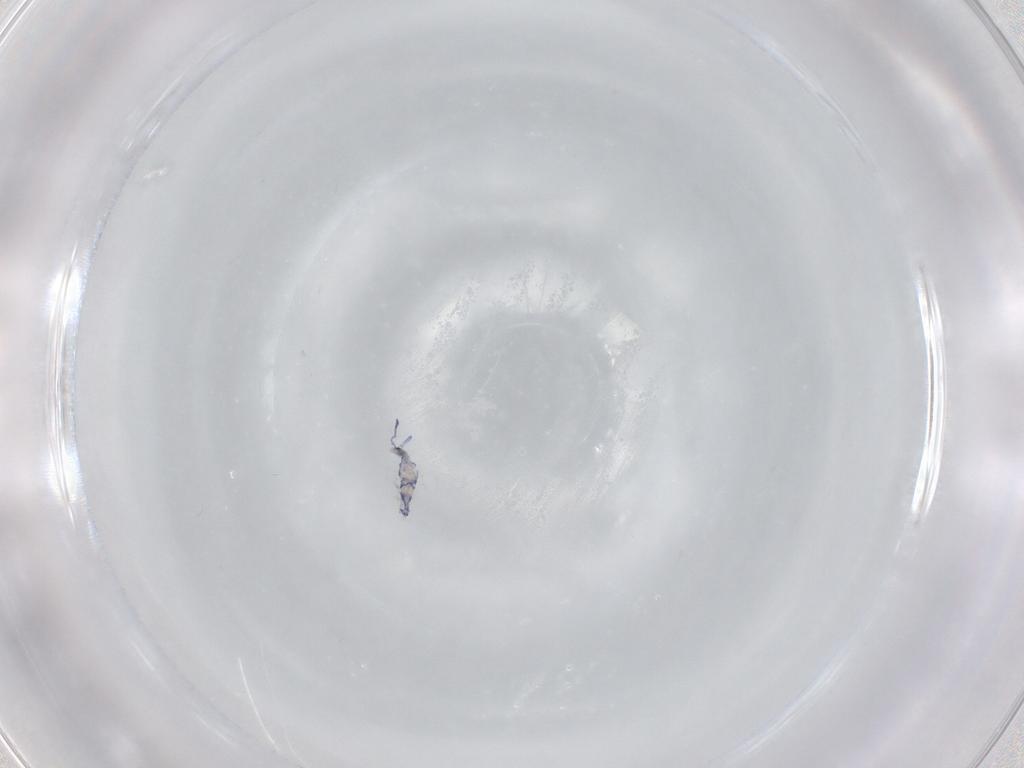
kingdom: Animalia
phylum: Arthropoda
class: Collembola
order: Entomobryomorpha
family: Entomobryidae
